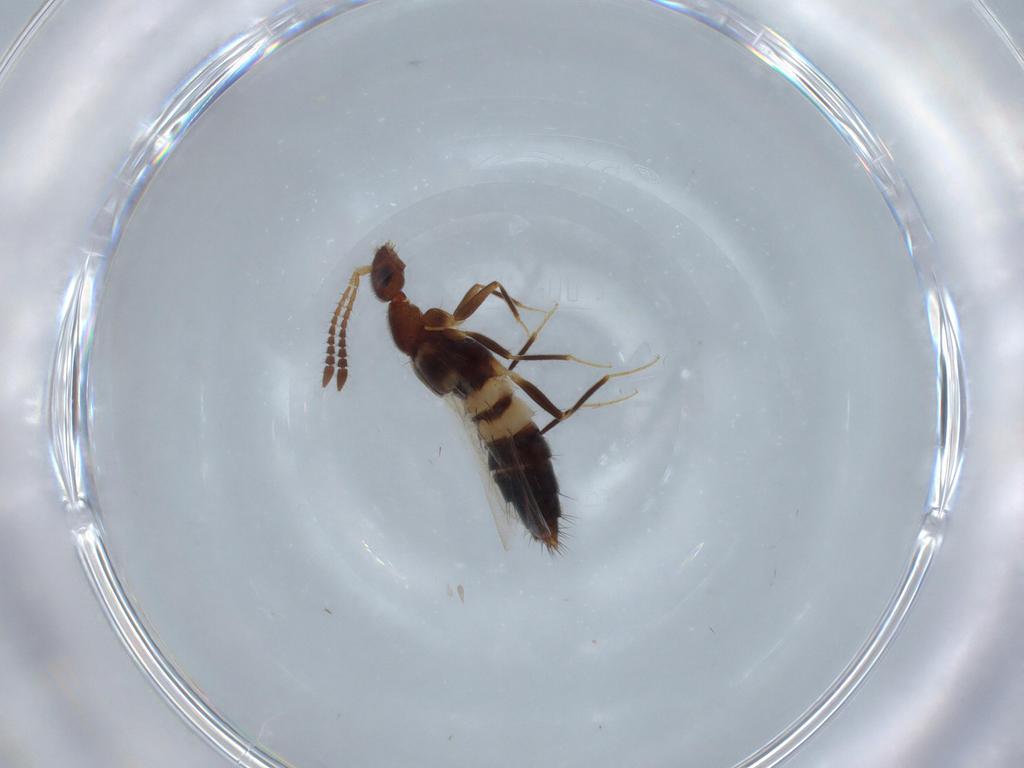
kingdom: Animalia
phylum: Arthropoda
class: Insecta
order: Coleoptera
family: Staphylinidae
